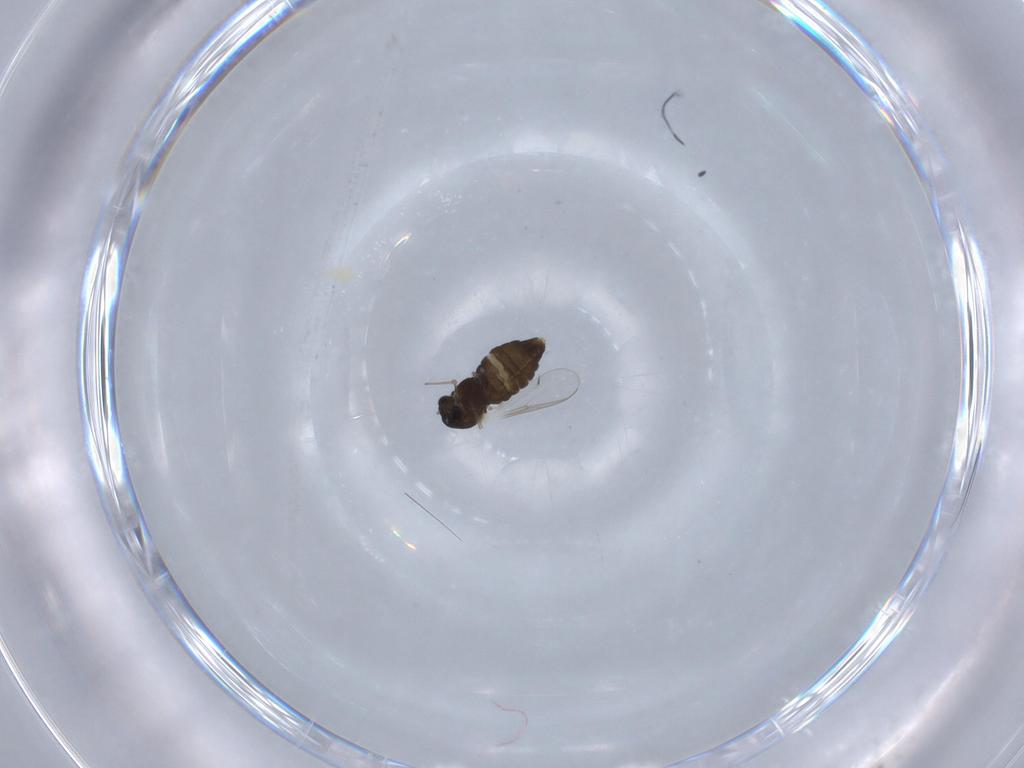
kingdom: Animalia
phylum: Arthropoda
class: Insecta
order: Diptera
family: Chironomidae
